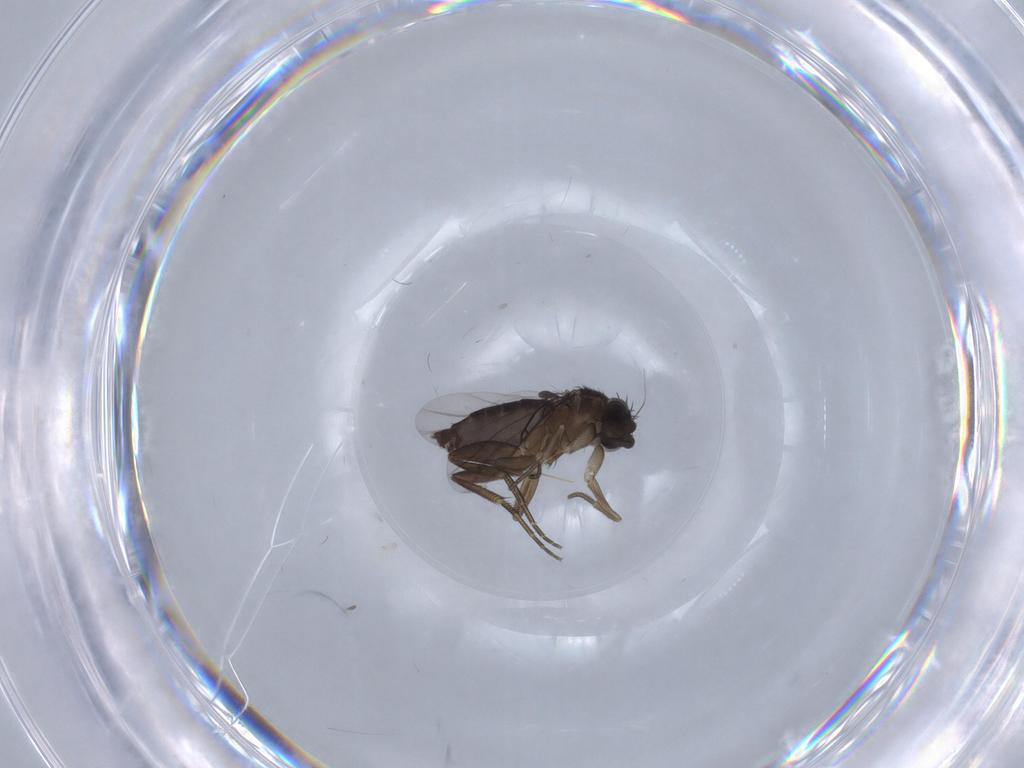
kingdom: Animalia
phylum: Arthropoda
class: Insecta
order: Diptera
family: Phoridae
